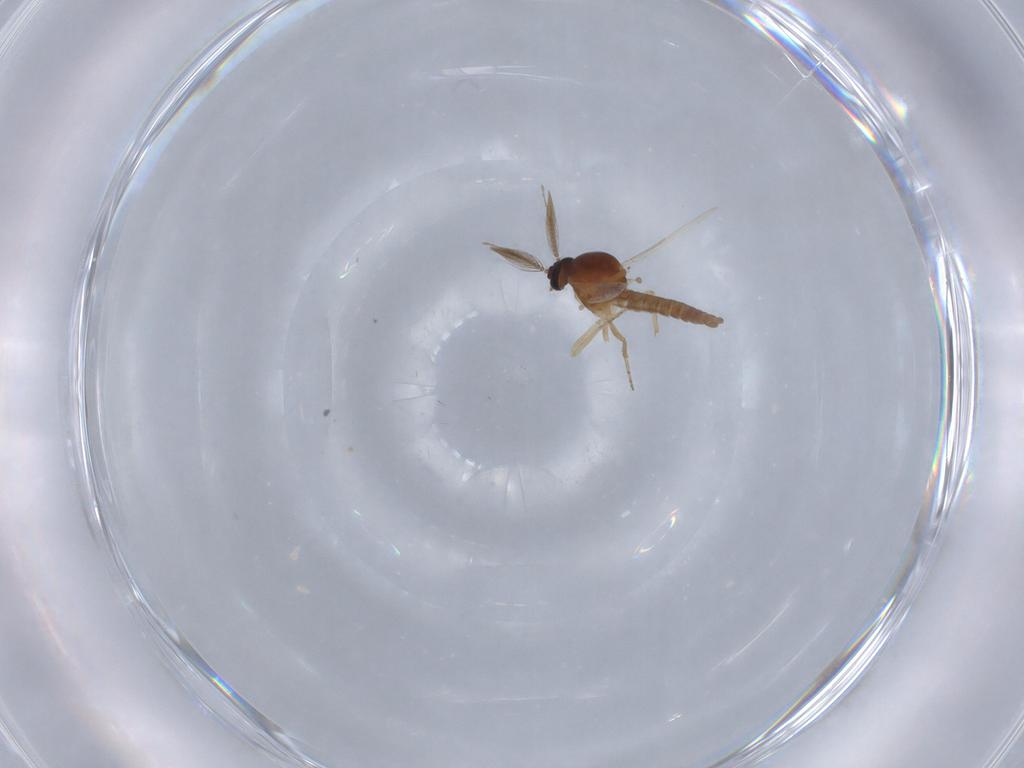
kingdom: Animalia
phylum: Arthropoda
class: Insecta
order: Diptera
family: Ceratopogonidae
